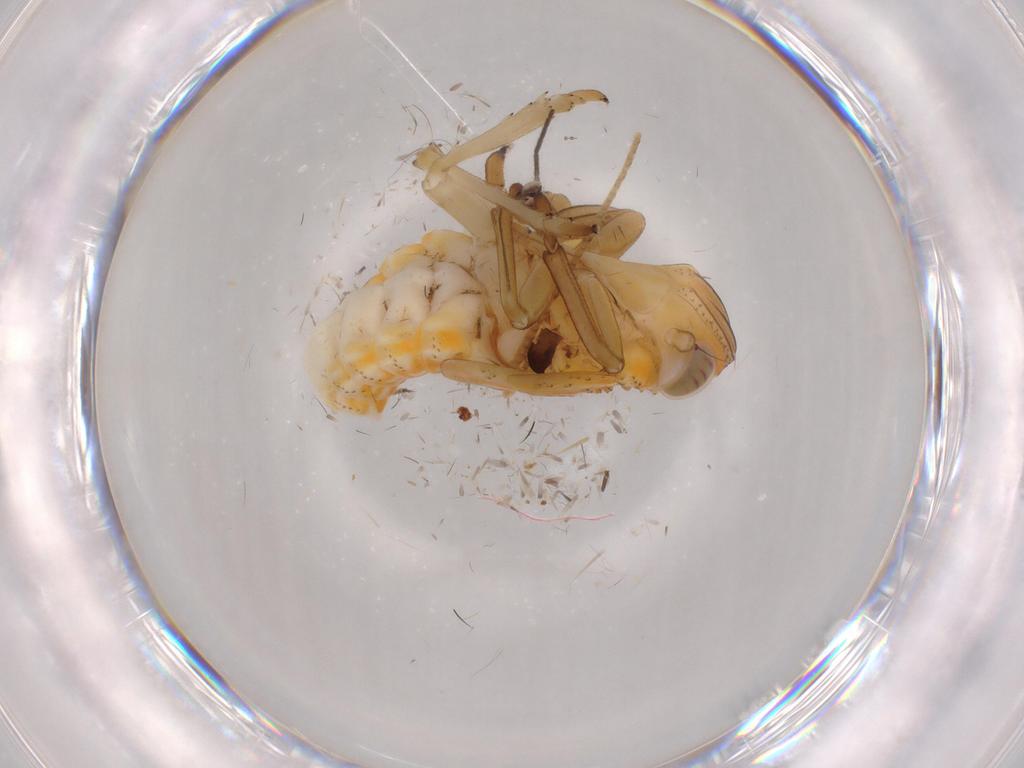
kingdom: Animalia
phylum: Arthropoda
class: Insecta
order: Hemiptera
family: Issidae
